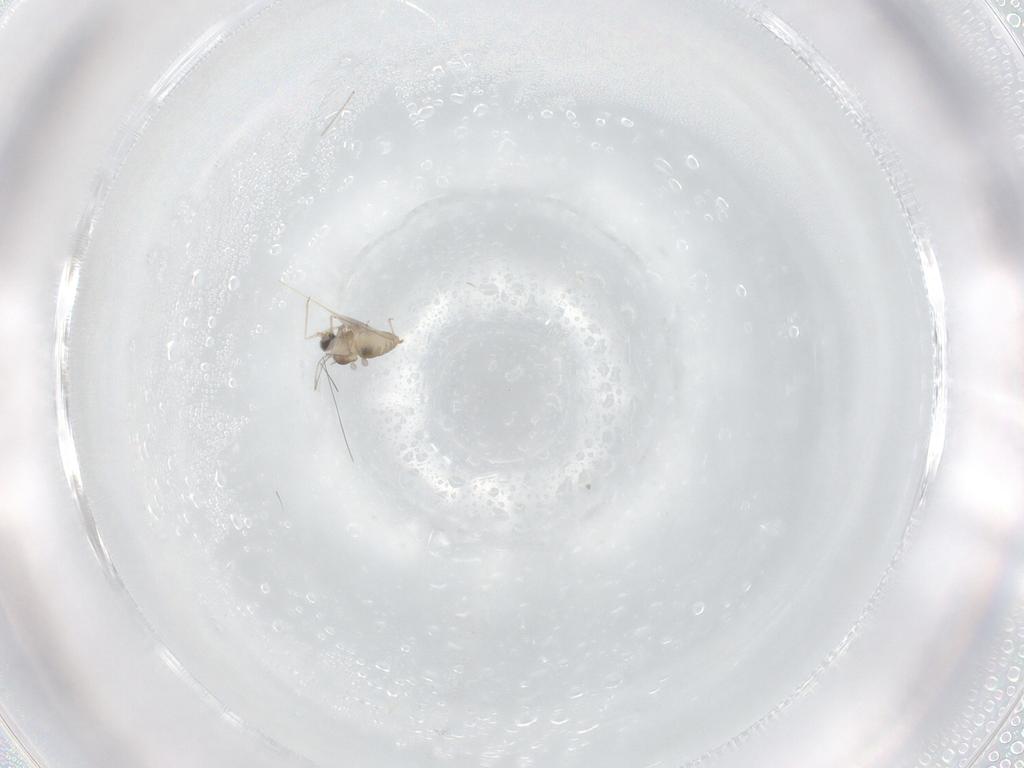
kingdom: Animalia
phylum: Arthropoda
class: Insecta
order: Diptera
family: Cecidomyiidae
